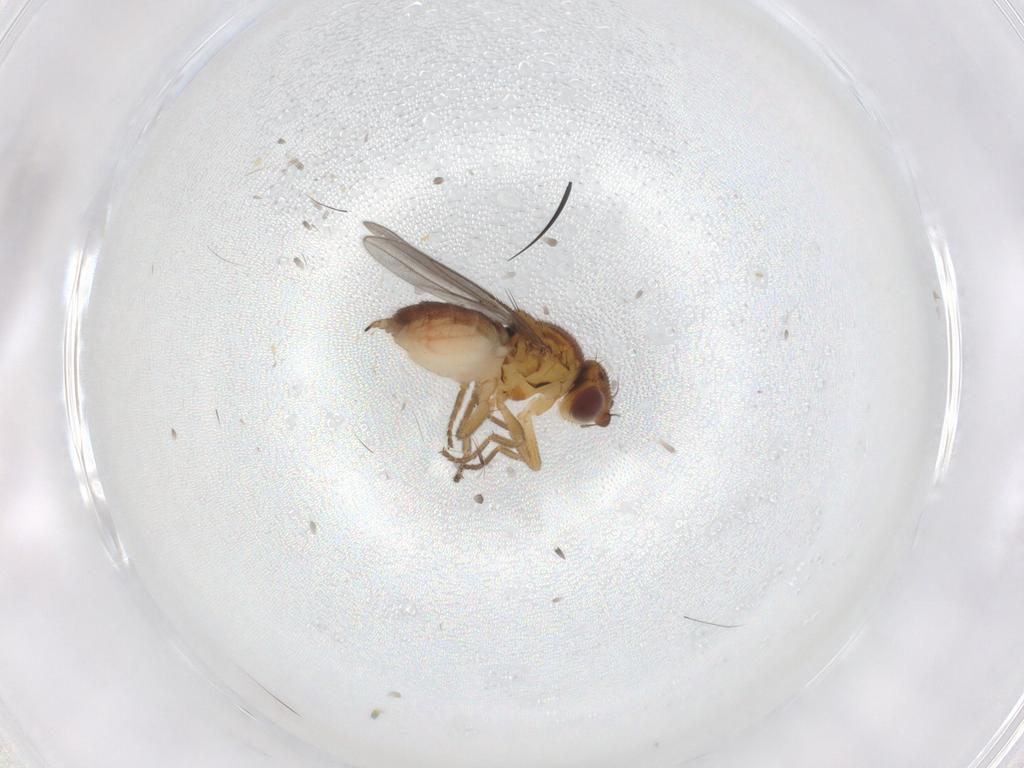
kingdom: Animalia
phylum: Arthropoda
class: Insecta
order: Diptera
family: Chloropidae
